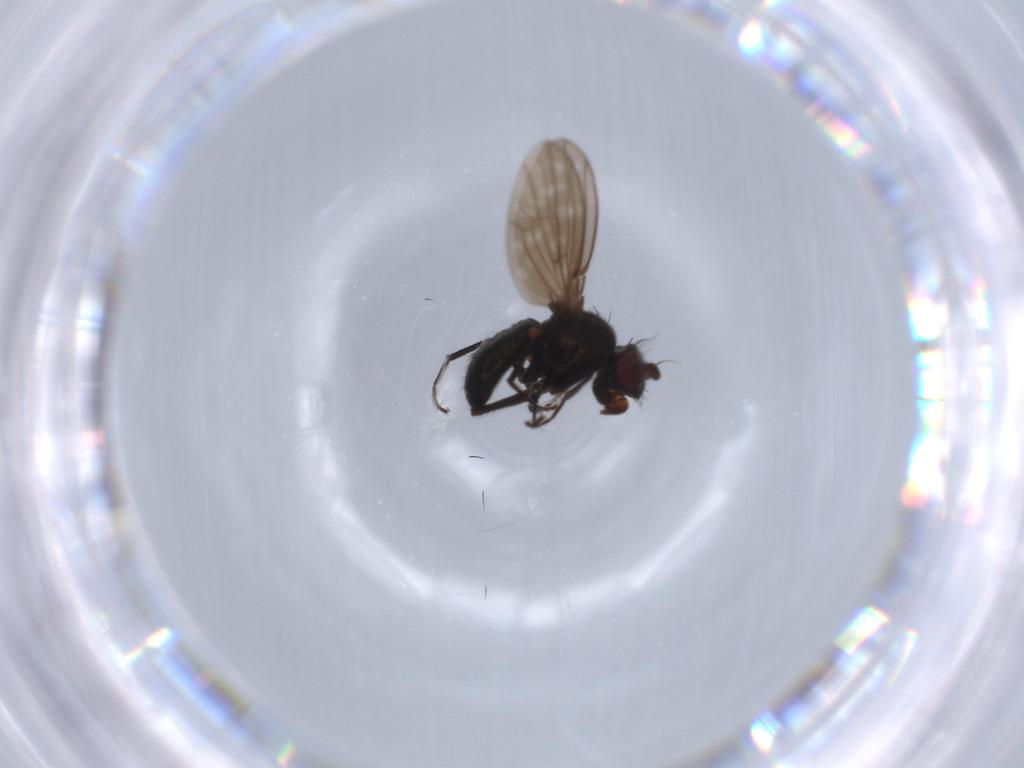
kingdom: Animalia
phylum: Arthropoda
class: Insecta
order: Diptera
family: Ephydridae
